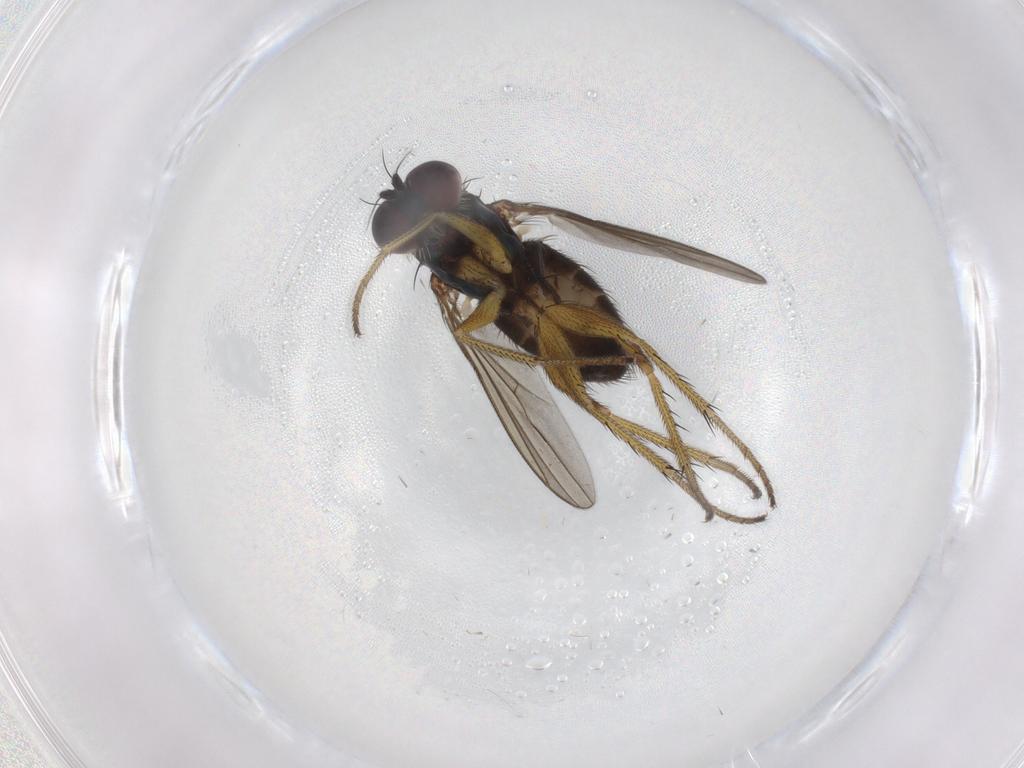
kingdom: Animalia
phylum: Arthropoda
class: Insecta
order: Diptera
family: Dolichopodidae
